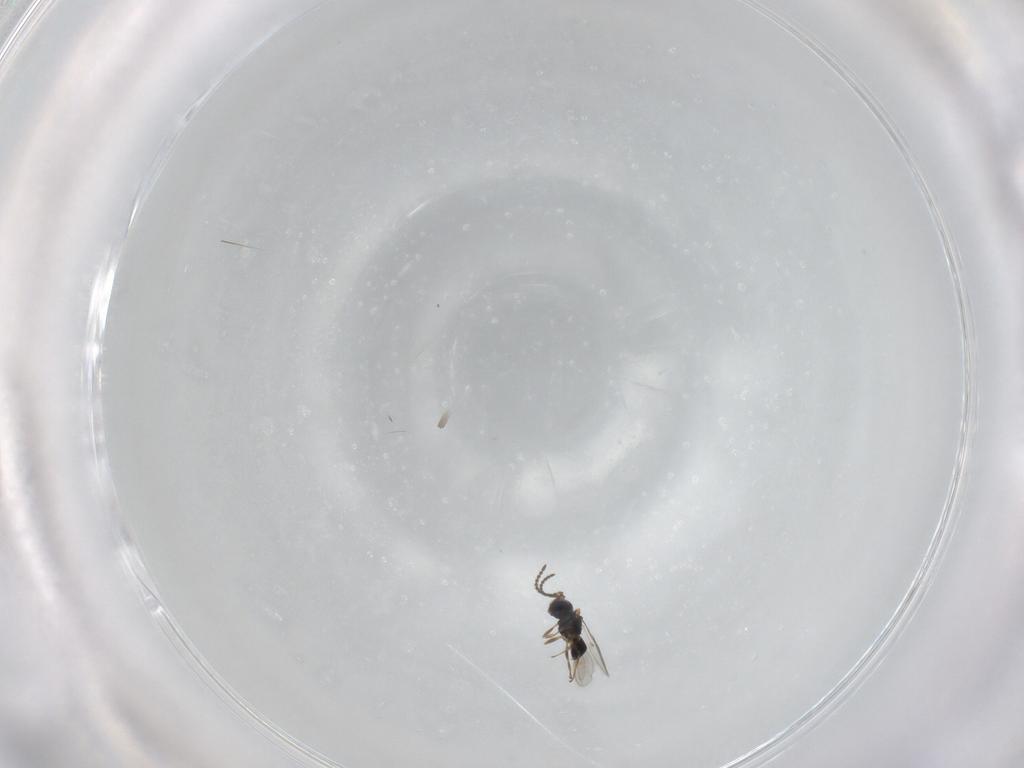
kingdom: Animalia
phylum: Arthropoda
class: Insecta
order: Hymenoptera
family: Scelionidae
